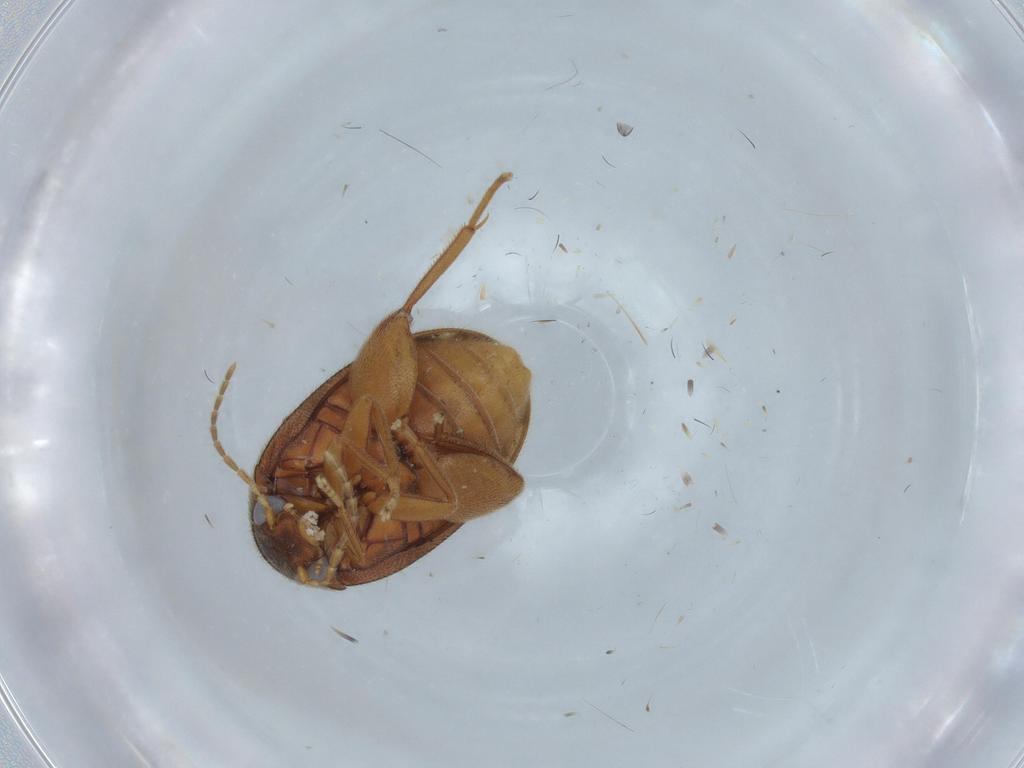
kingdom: Animalia
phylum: Arthropoda
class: Insecta
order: Coleoptera
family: Scirtidae
